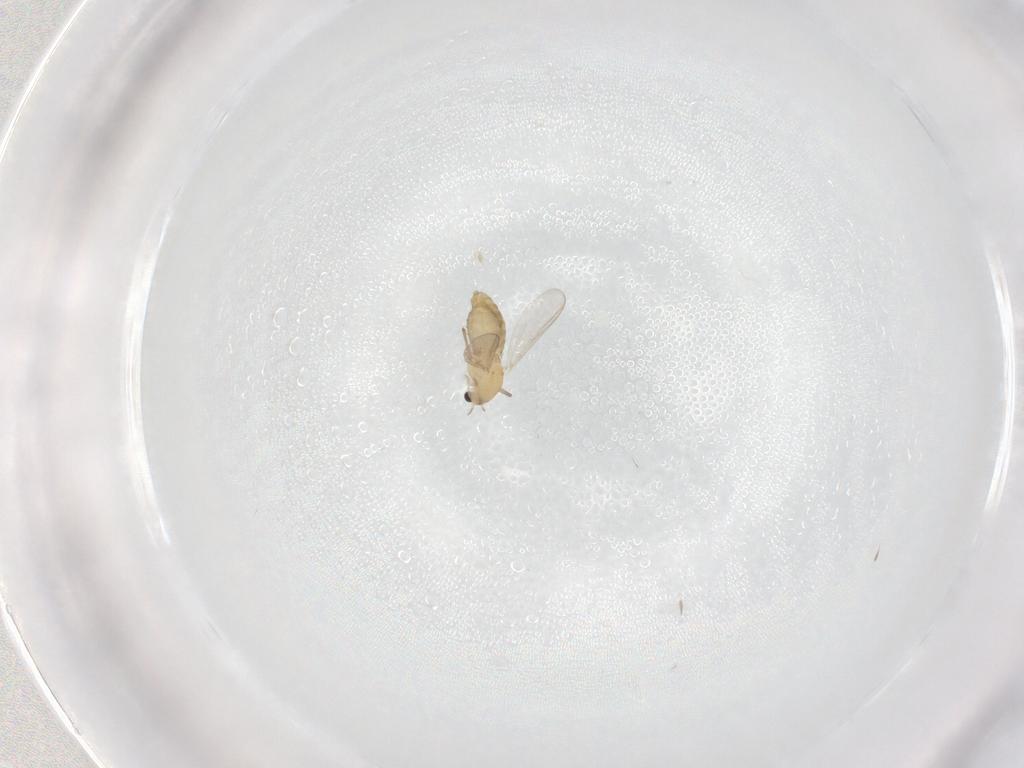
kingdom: Animalia
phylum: Arthropoda
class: Insecta
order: Diptera
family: Chironomidae
